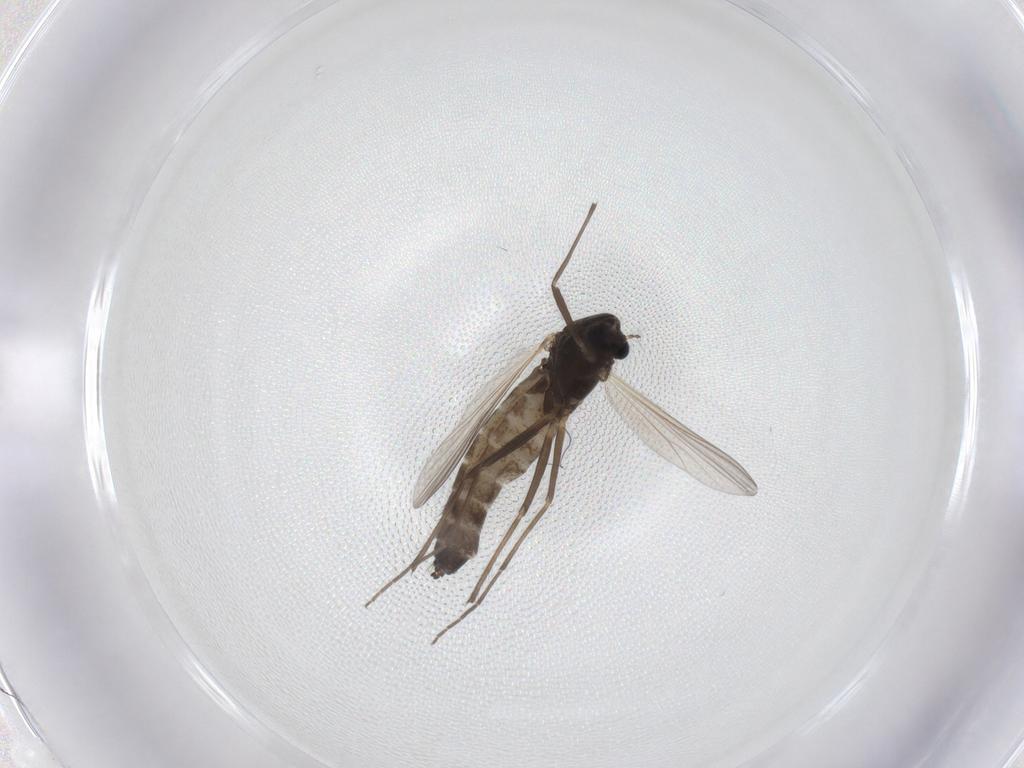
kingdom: Animalia
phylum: Arthropoda
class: Insecta
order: Diptera
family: Chironomidae
